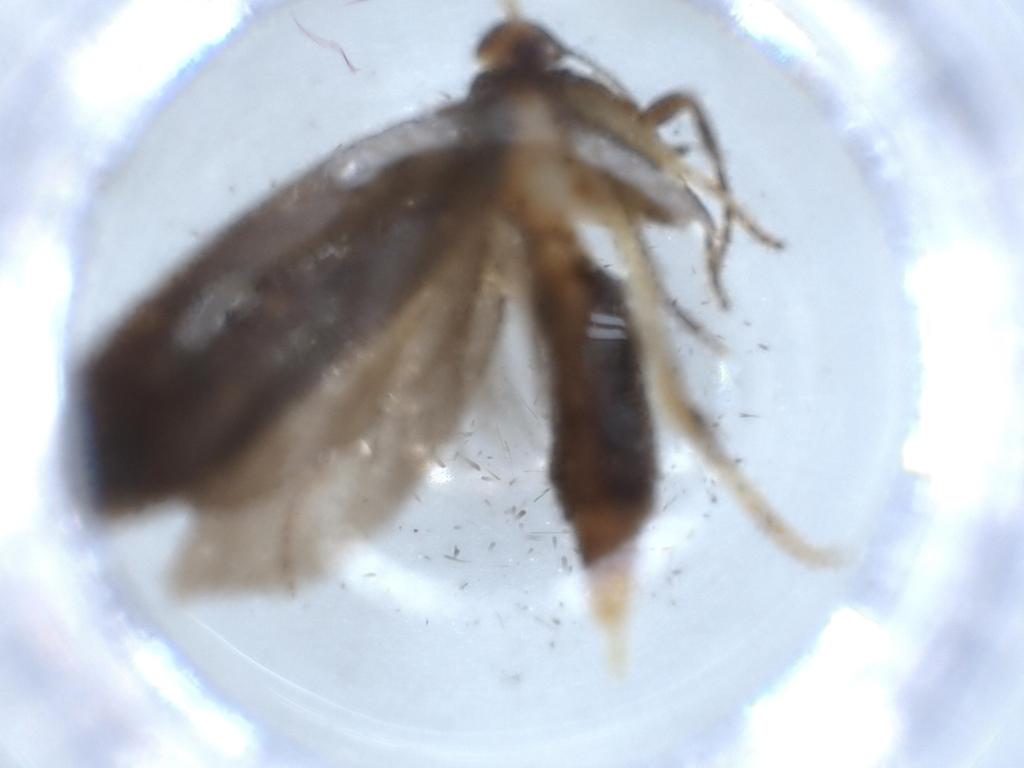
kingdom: Animalia
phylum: Arthropoda
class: Insecta
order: Lepidoptera
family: Lecithoceridae
